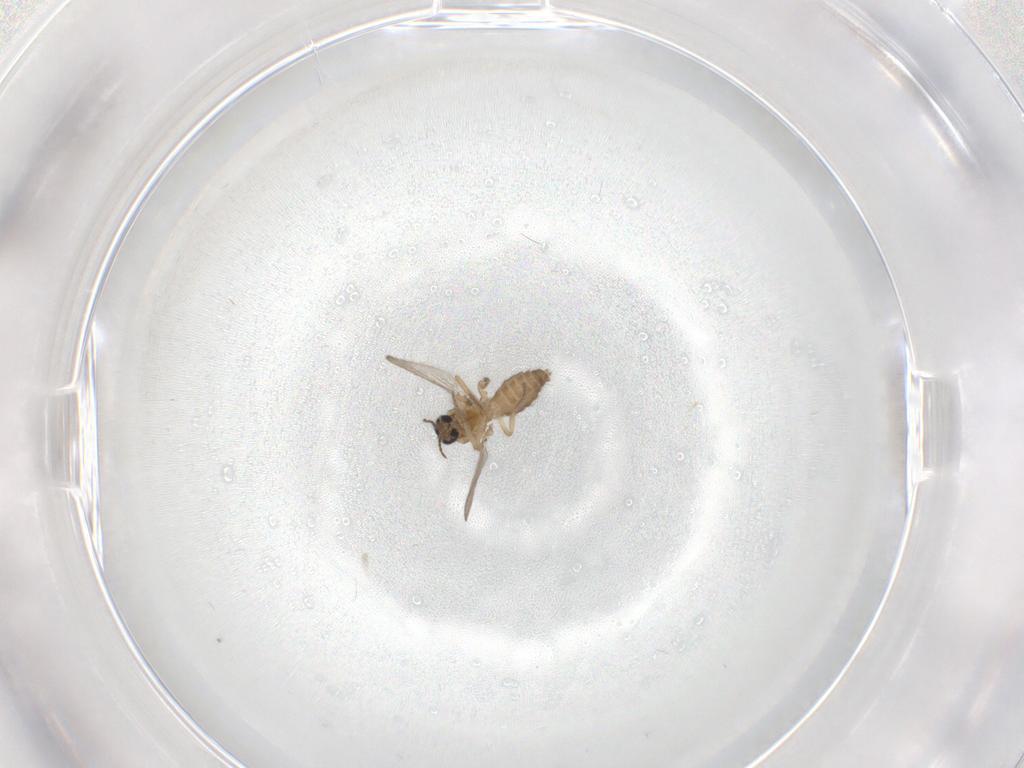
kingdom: Animalia
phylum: Arthropoda
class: Insecta
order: Diptera
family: Ceratopogonidae
